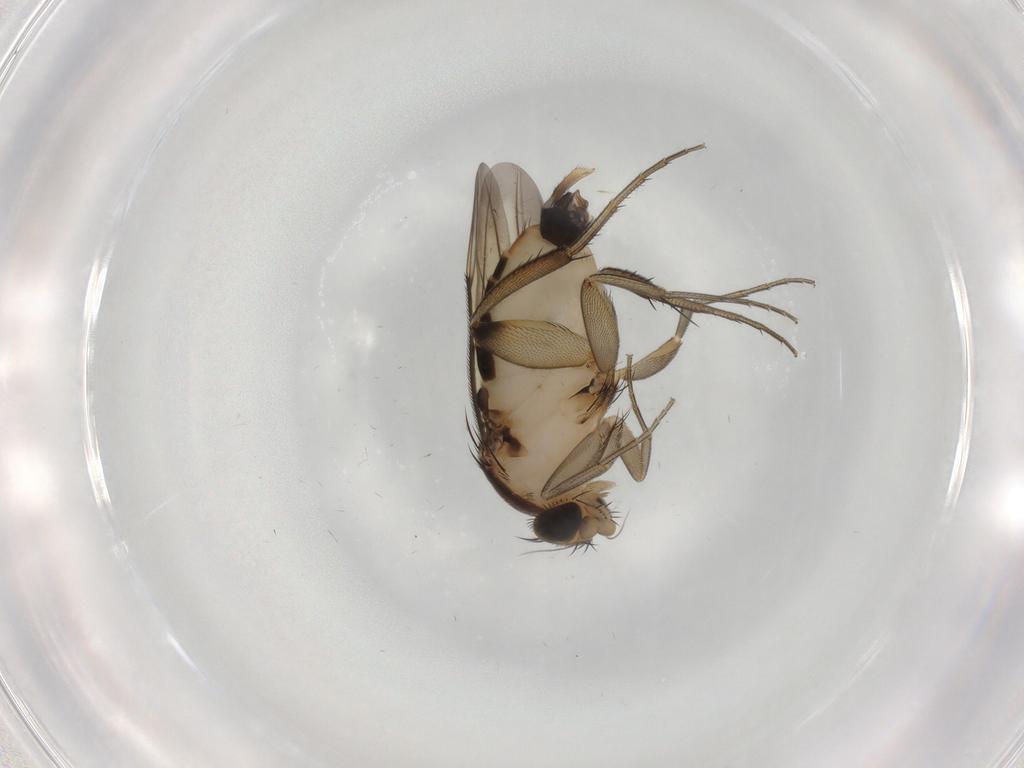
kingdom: Animalia
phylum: Arthropoda
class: Insecta
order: Diptera
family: Phoridae
